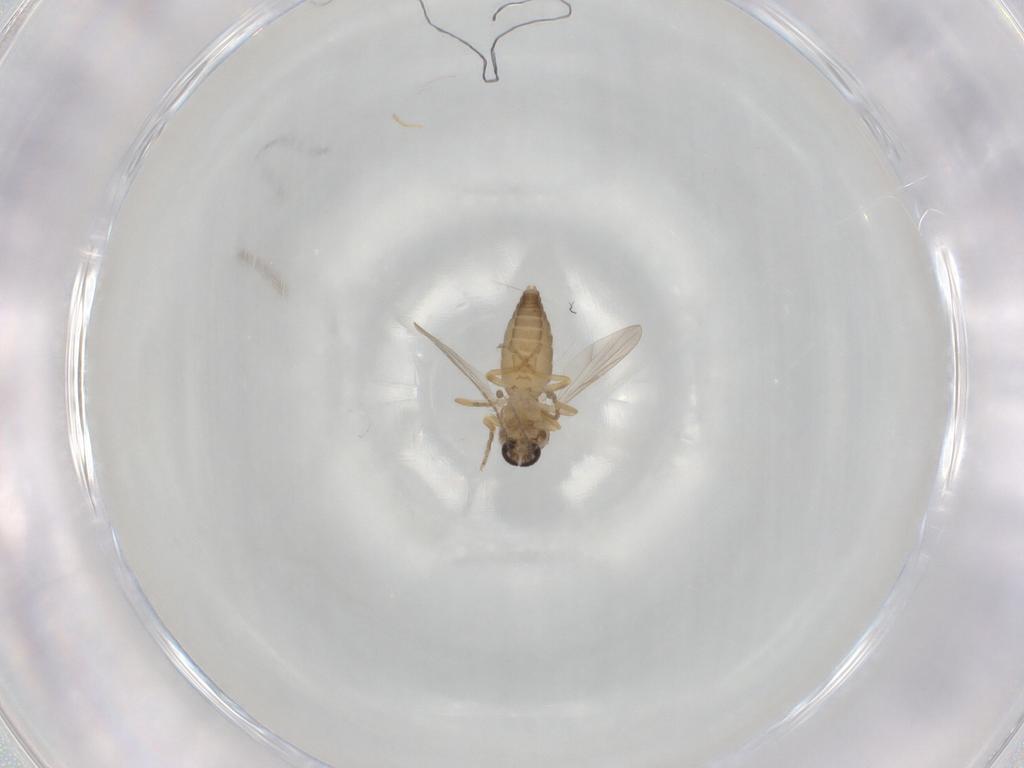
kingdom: Animalia
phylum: Arthropoda
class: Insecta
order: Diptera
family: Ceratopogonidae
